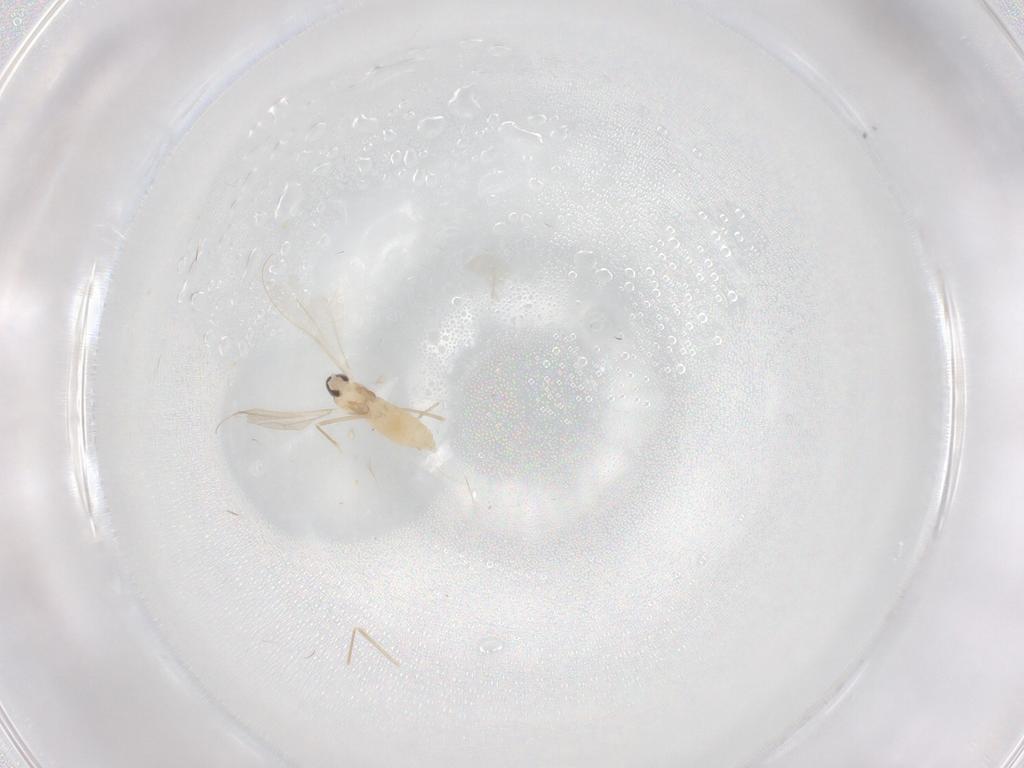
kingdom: Animalia
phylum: Arthropoda
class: Insecta
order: Diptera
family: Cecidomyiidae
